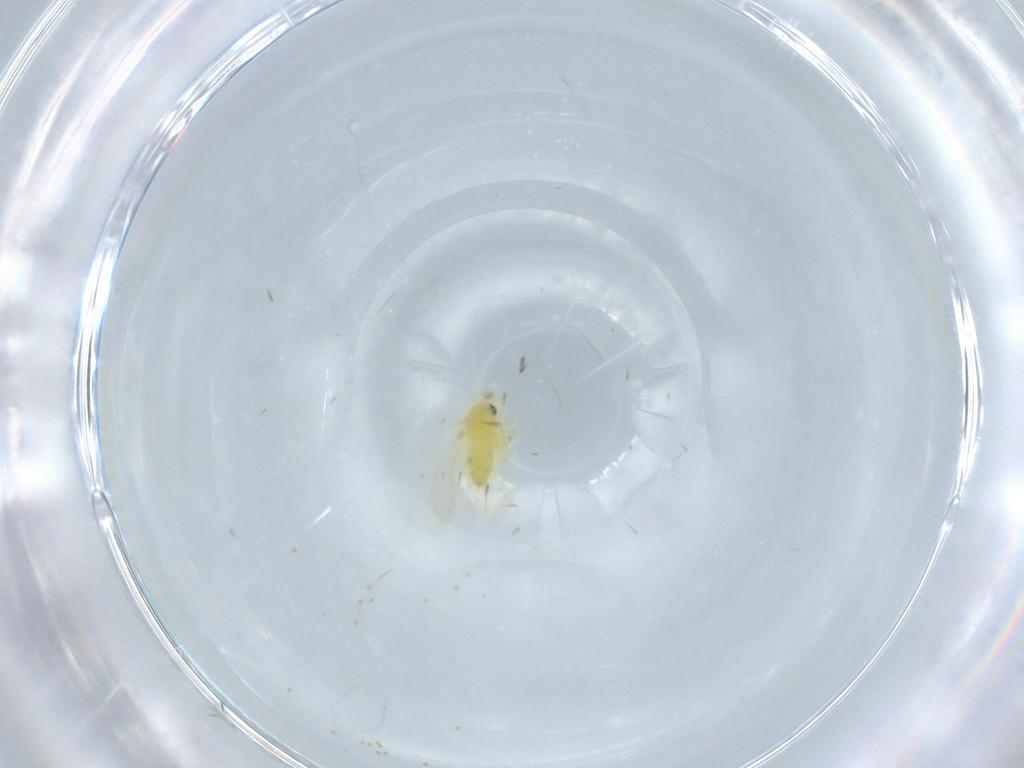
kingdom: Animalia
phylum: Arthropoda
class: Insecta
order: Hemiptera
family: Aleyrodidae
